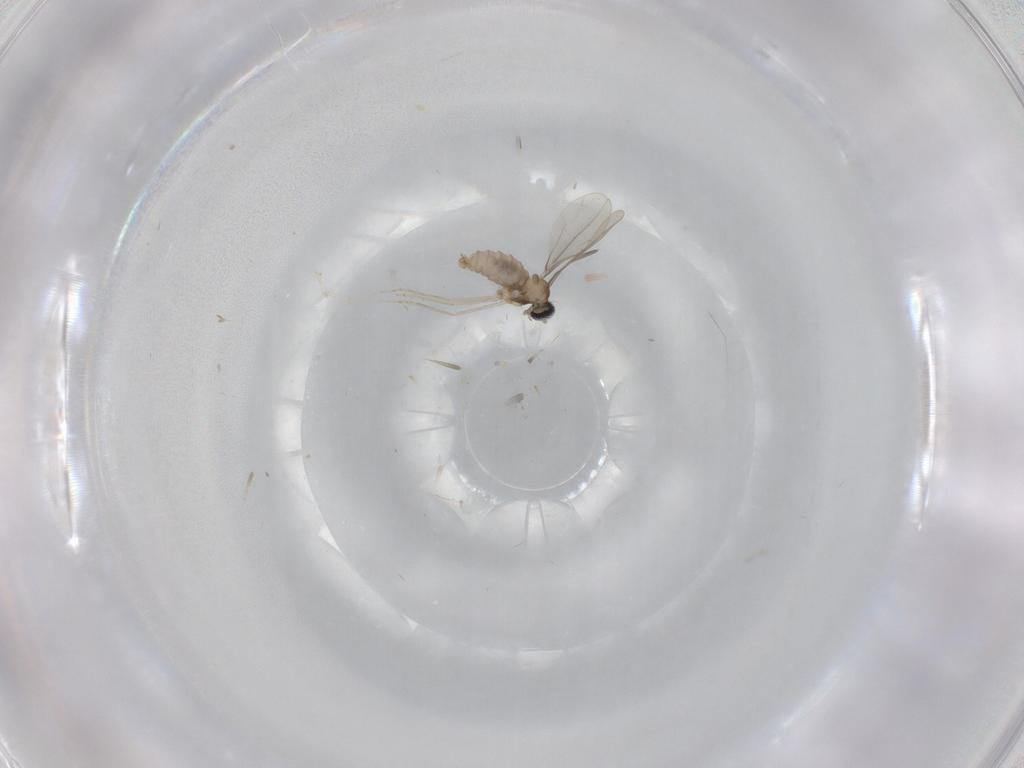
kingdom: Animalia
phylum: Arthropoda
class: Insecta
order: Diptera
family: Cecidomyiidae
